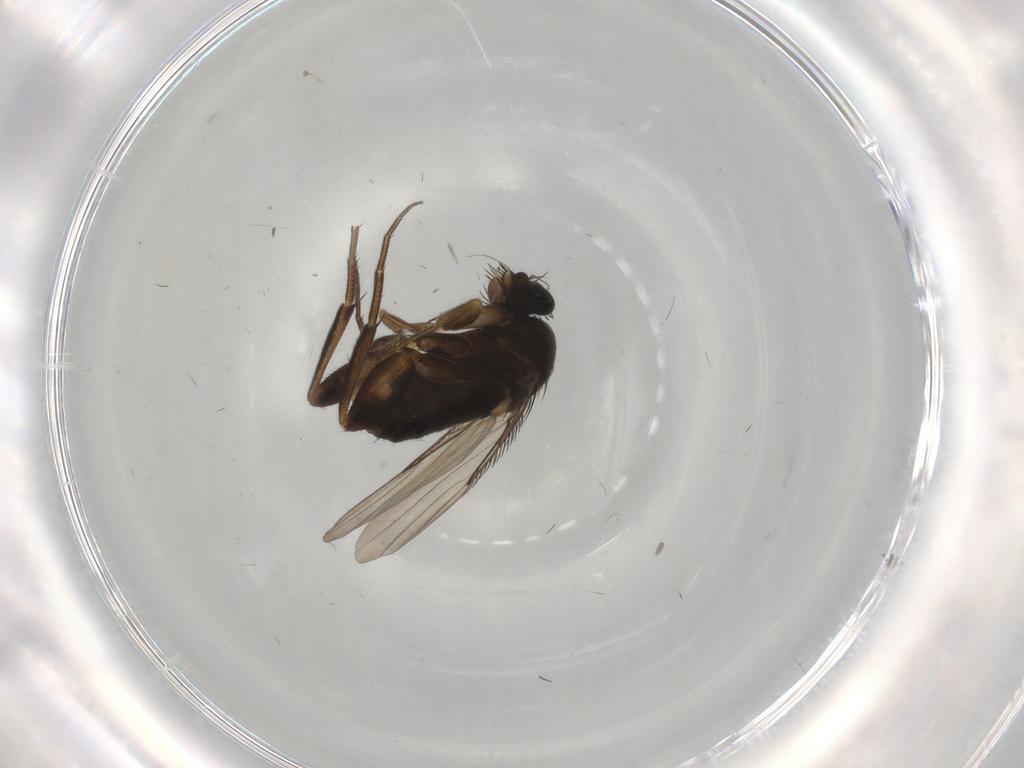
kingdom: Animalia
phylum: Arthropoda
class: Insecta
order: Diptera
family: Phoridae
